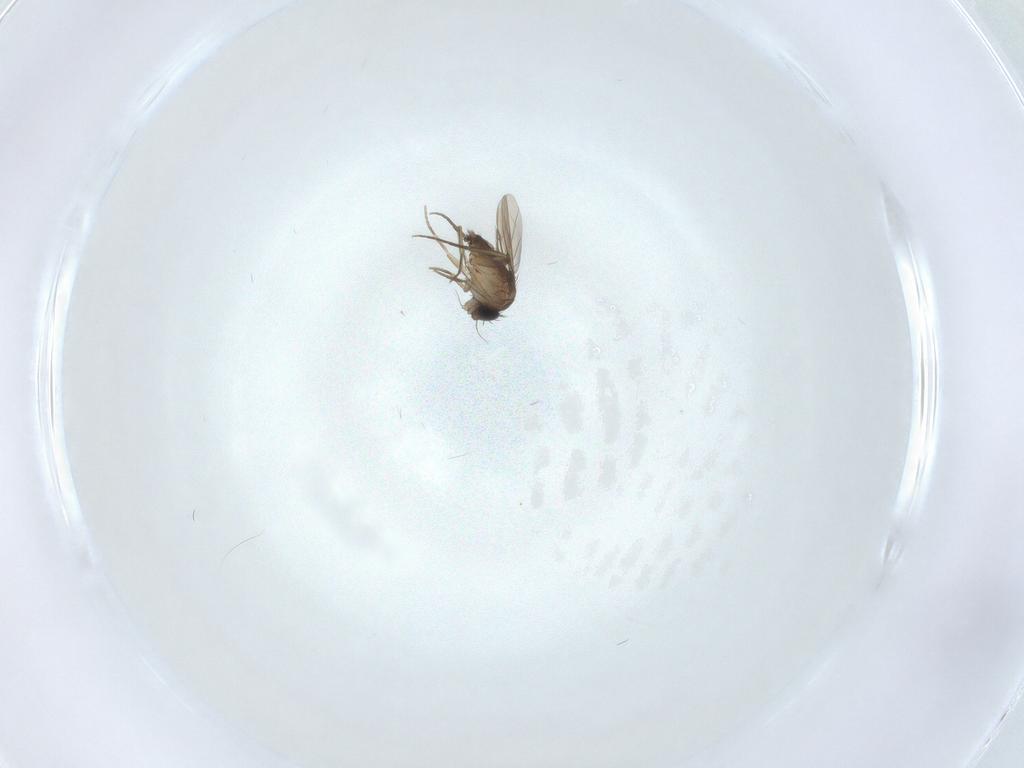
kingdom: Animalia
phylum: Arthropoda
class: Insecta
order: Diptera
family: Phoridae
